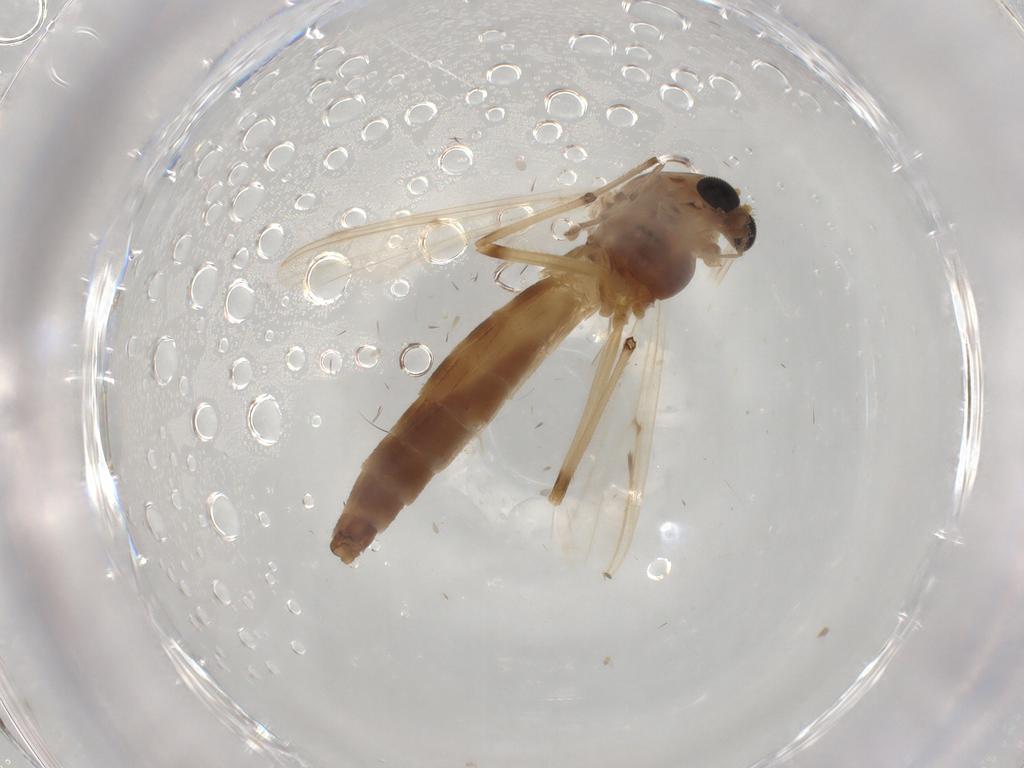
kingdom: Animalia
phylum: Arthropoda
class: Insecta
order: Diptera
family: Chironomidae
